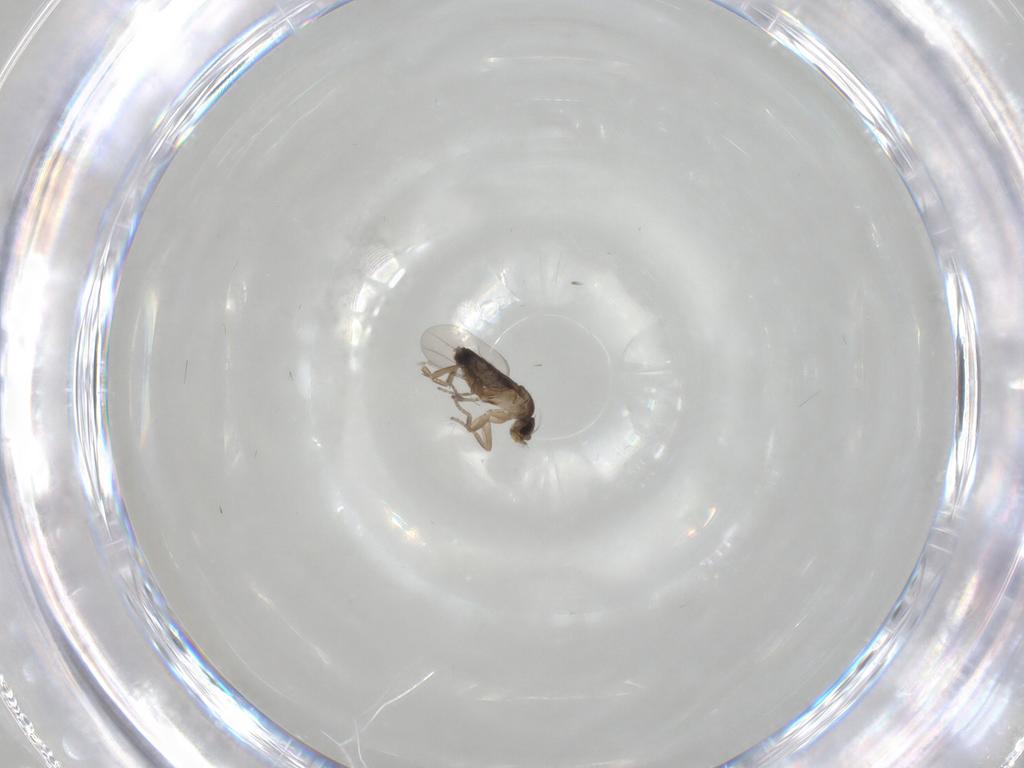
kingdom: Animalia
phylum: Arthropoda
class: Insecta
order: Diptera
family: Phoridae
